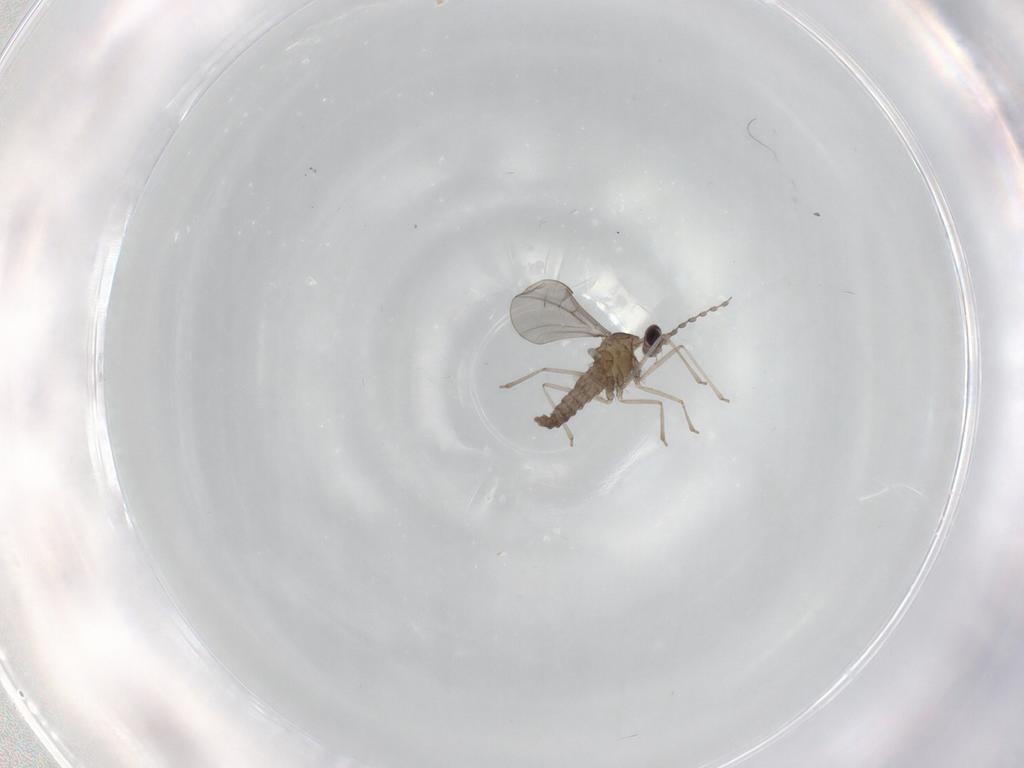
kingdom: Animalia
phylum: Arthropoda
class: Insecta
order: Diptera
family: Cecidomyiidae
